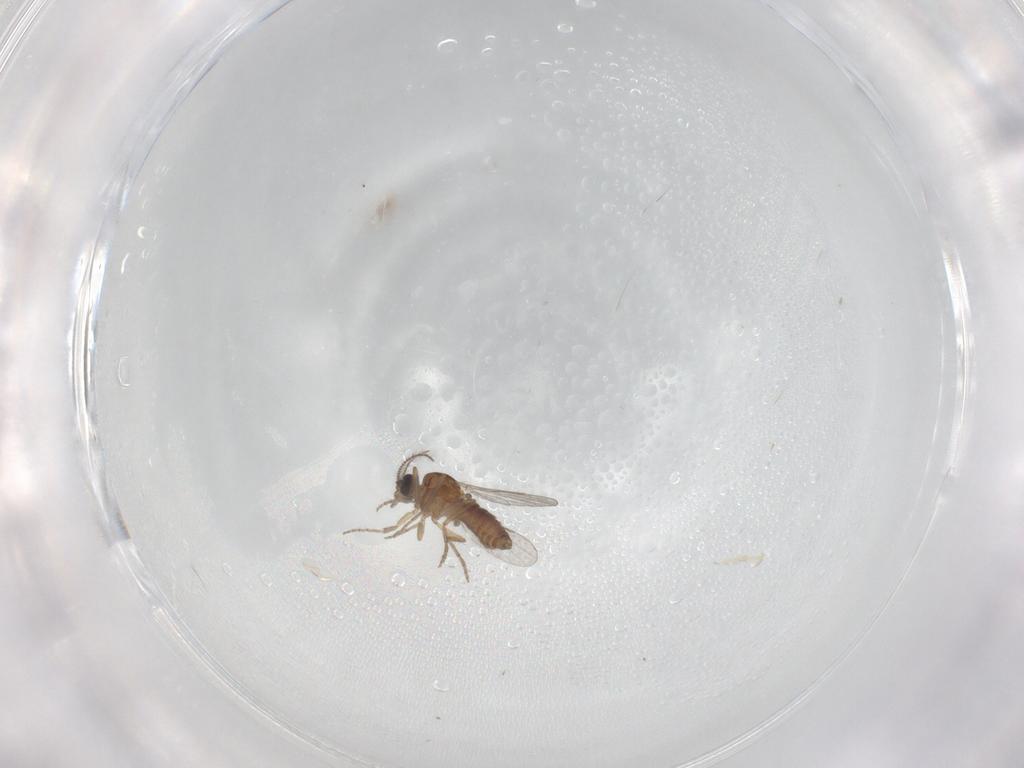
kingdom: Animalia
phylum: Arthropoda
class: Insecta
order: Diptera
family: Ceratopogonidae
